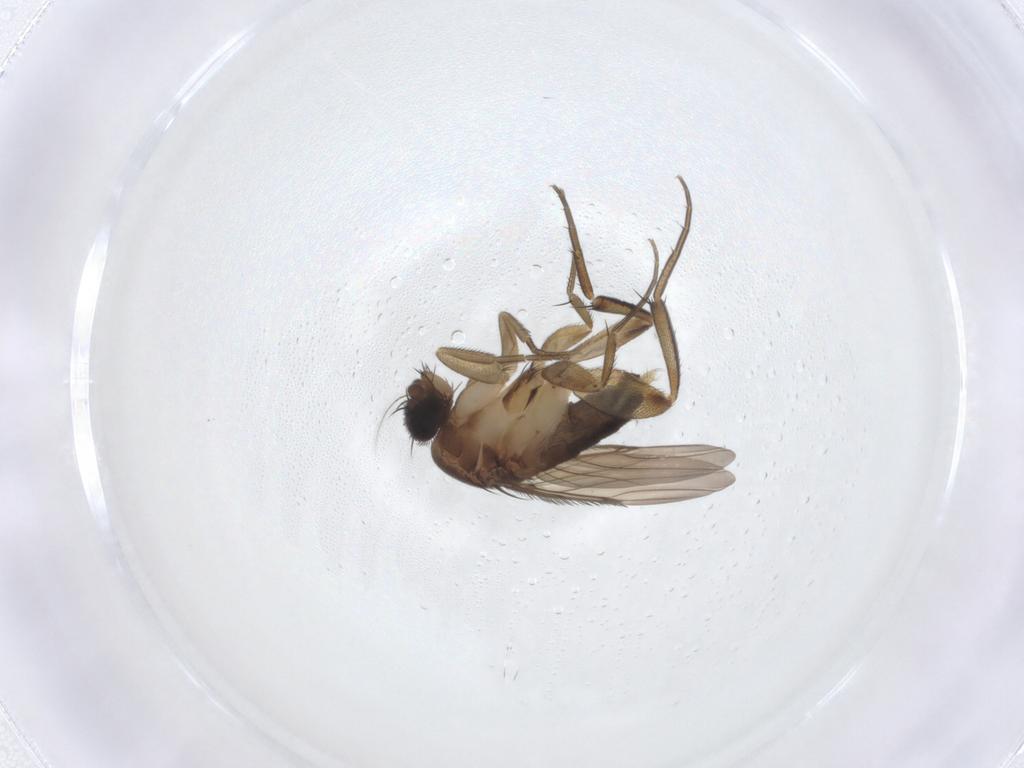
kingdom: Animalia
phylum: Arthropoda
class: Insecta
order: Diptera
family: Phoridae
